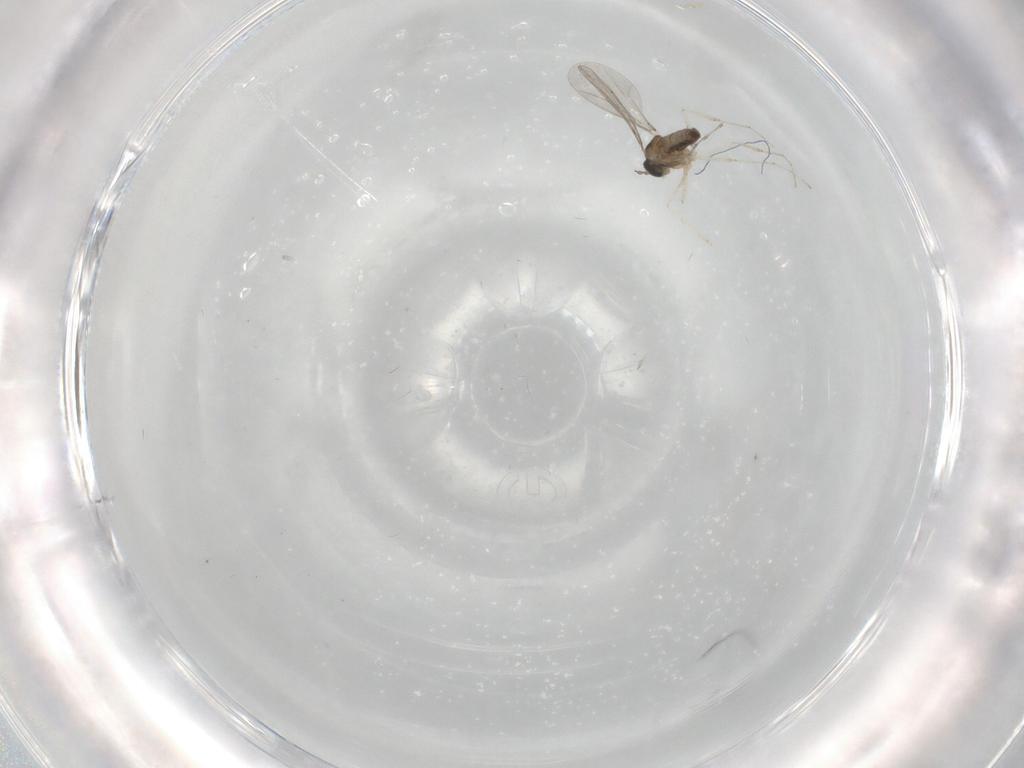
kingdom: Animalia
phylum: Arthropoda
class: Insecta
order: Diptera
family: Cecidomyiidae
